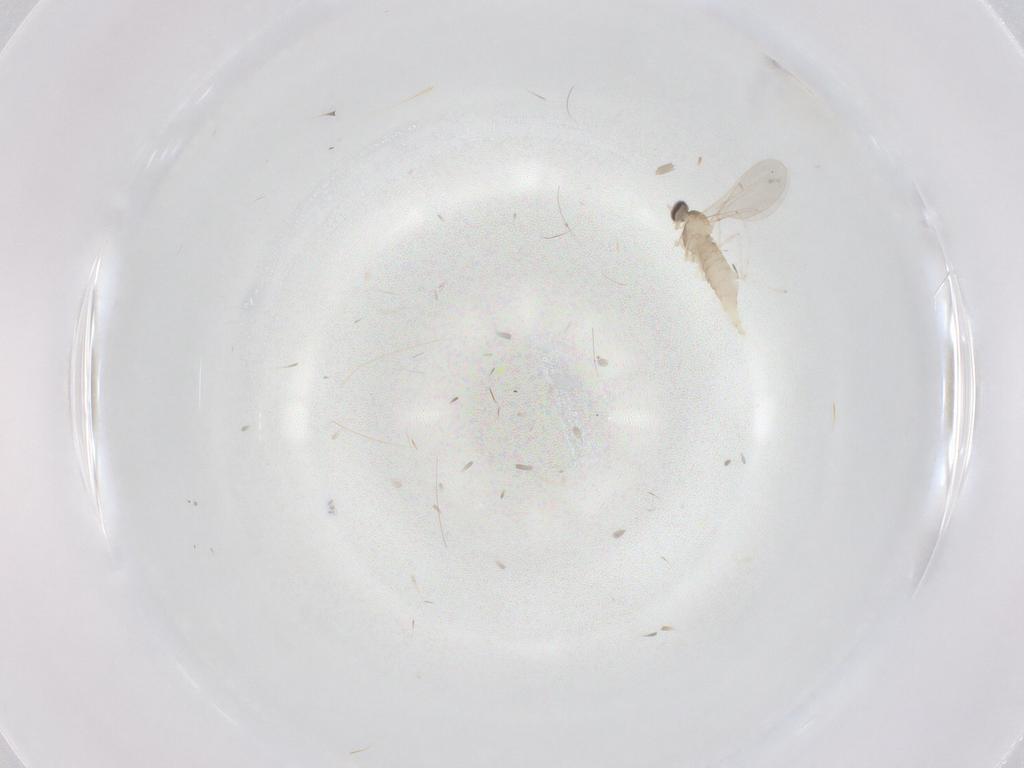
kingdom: Animalia
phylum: Arthropoda
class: Insecta
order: Diptera
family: Cecidomyiidae
